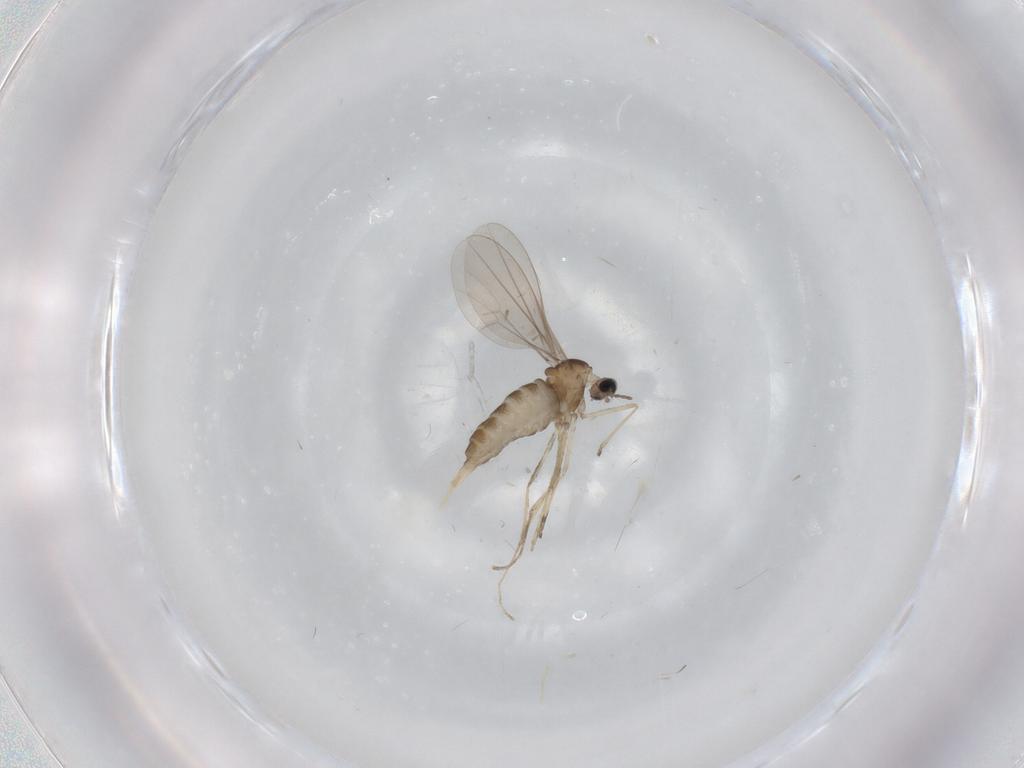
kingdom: Animalia
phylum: Arthropoda
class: Insecta
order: Diptera
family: Cecidomyiidae
